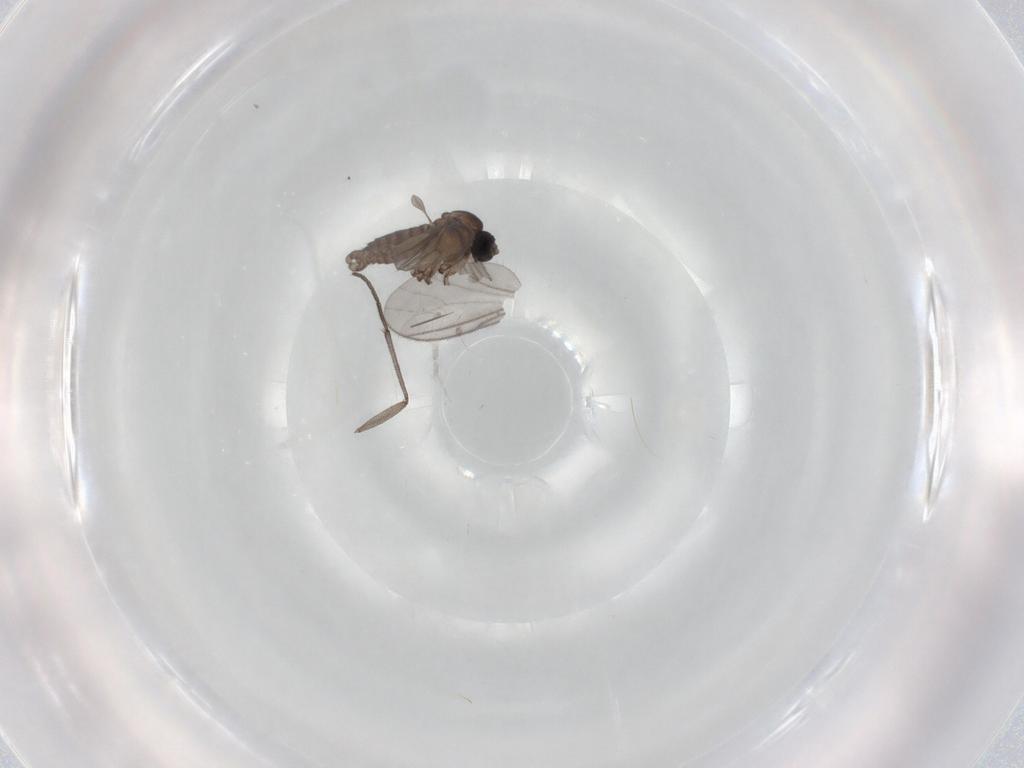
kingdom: Animalia
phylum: Arthropoda
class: Insecta
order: Diptera
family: Sciaridae
